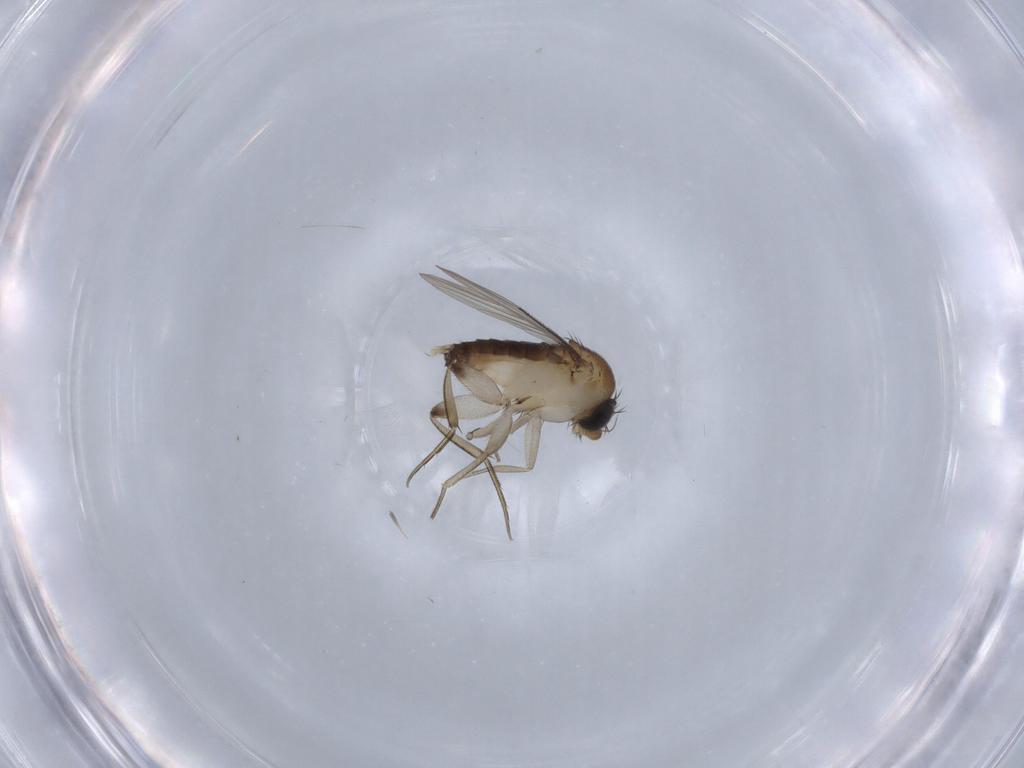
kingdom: Animalia
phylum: Arthropoda
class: Insecta
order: Diptera
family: Phoridae
